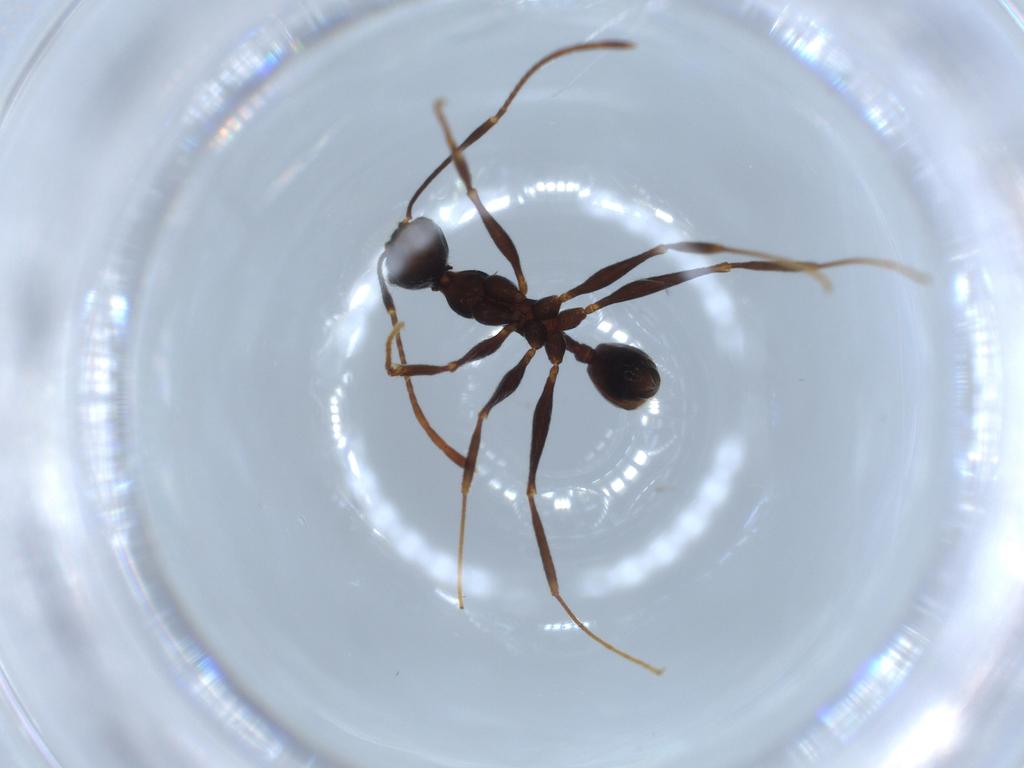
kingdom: Animalia
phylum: Arthropoda
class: Insecta
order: Hymenoptera
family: Formicidae
